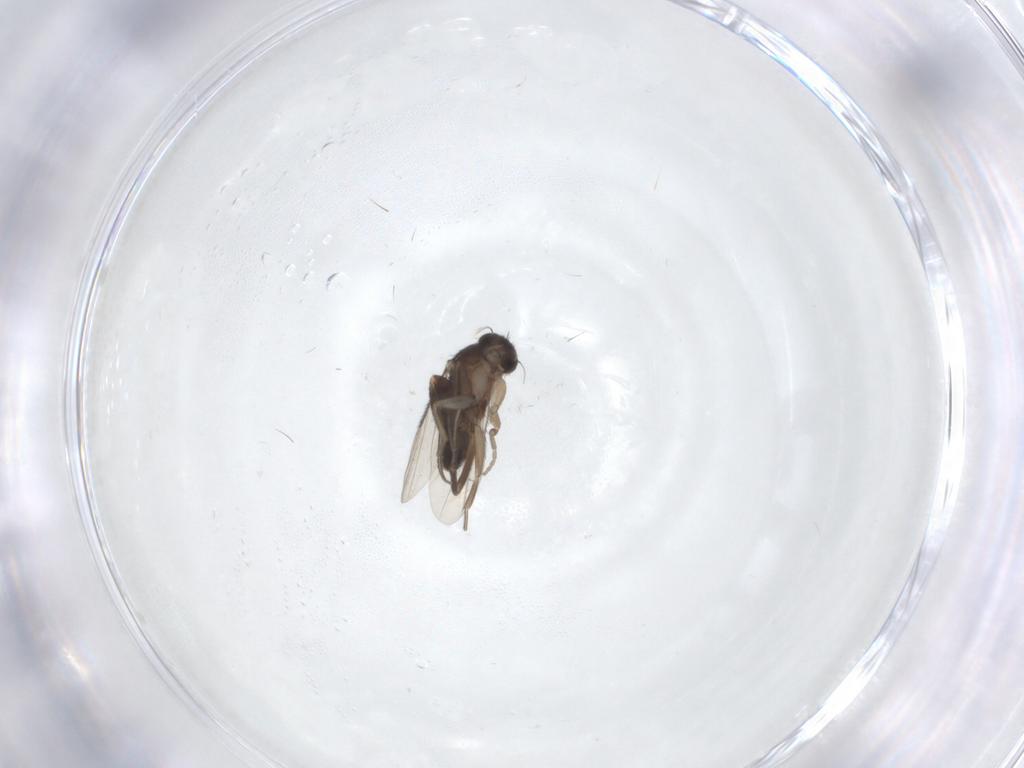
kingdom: Animalia
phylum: Arthropoda
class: Insecta
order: Diptera
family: Phoridae
